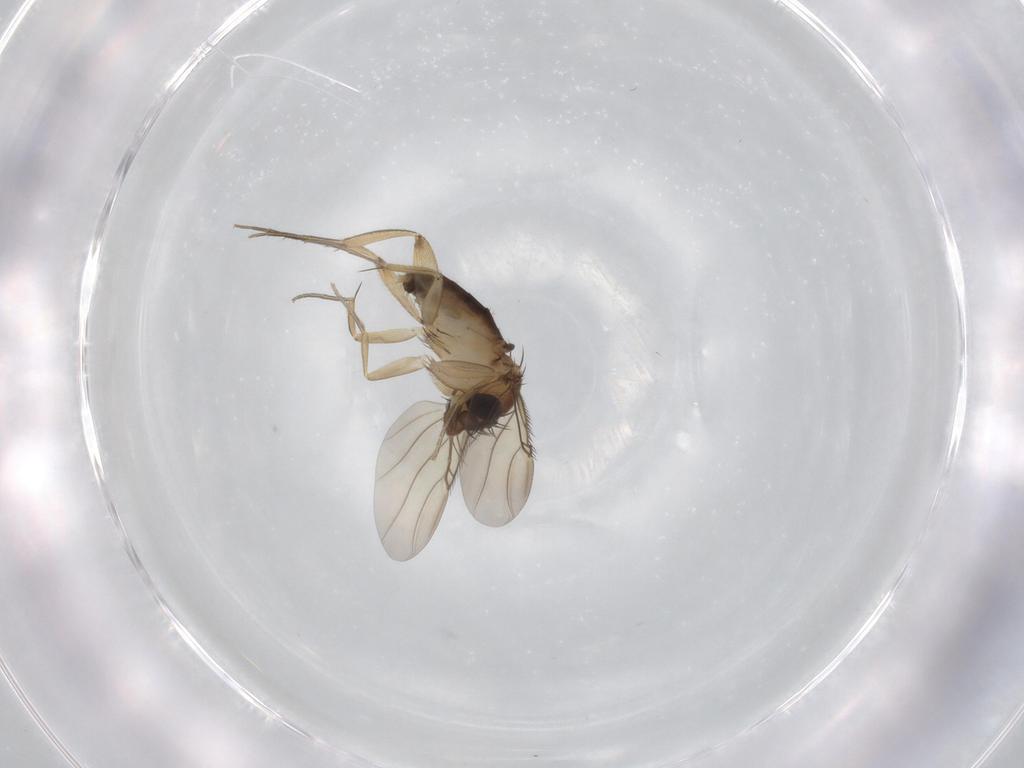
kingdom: Animalia
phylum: Arthropoda
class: Insecta
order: Diptera
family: Phoridae
